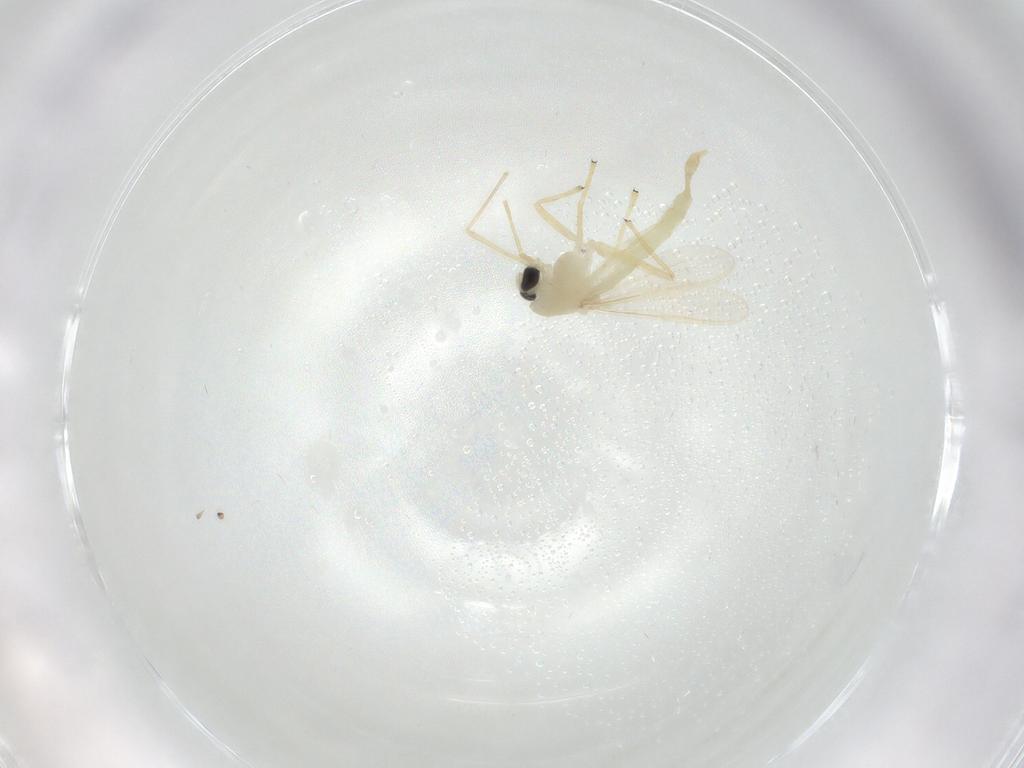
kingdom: Animalia
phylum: Arthropoda
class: Insecta
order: Diptera
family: Chironomidae
